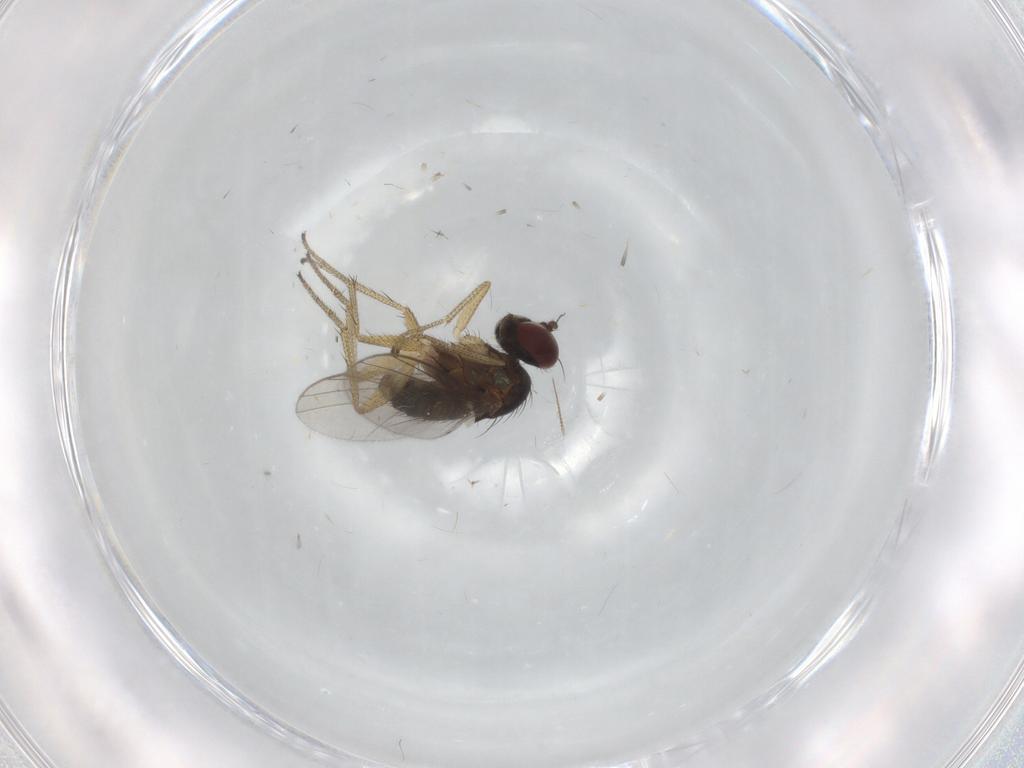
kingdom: Animalia
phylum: Arthropoda
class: Insecta
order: Diptera
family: Dolichopodidae
